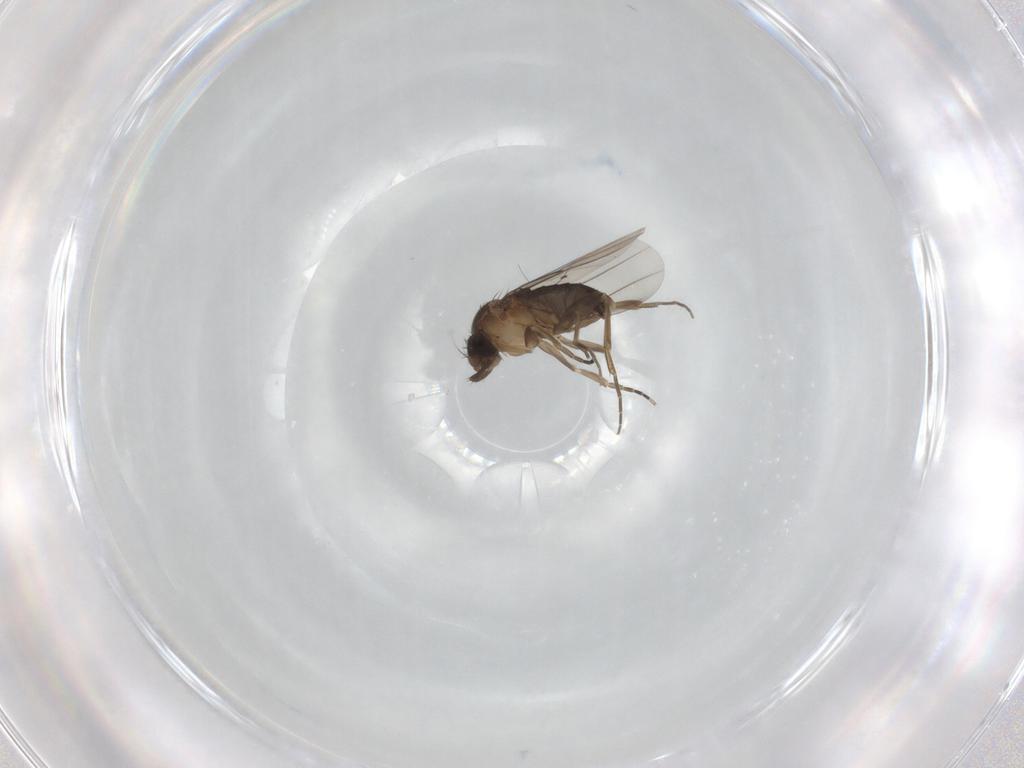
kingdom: Animalia
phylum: Arthropoda
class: Insecta
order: Diptera
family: Phoridae
